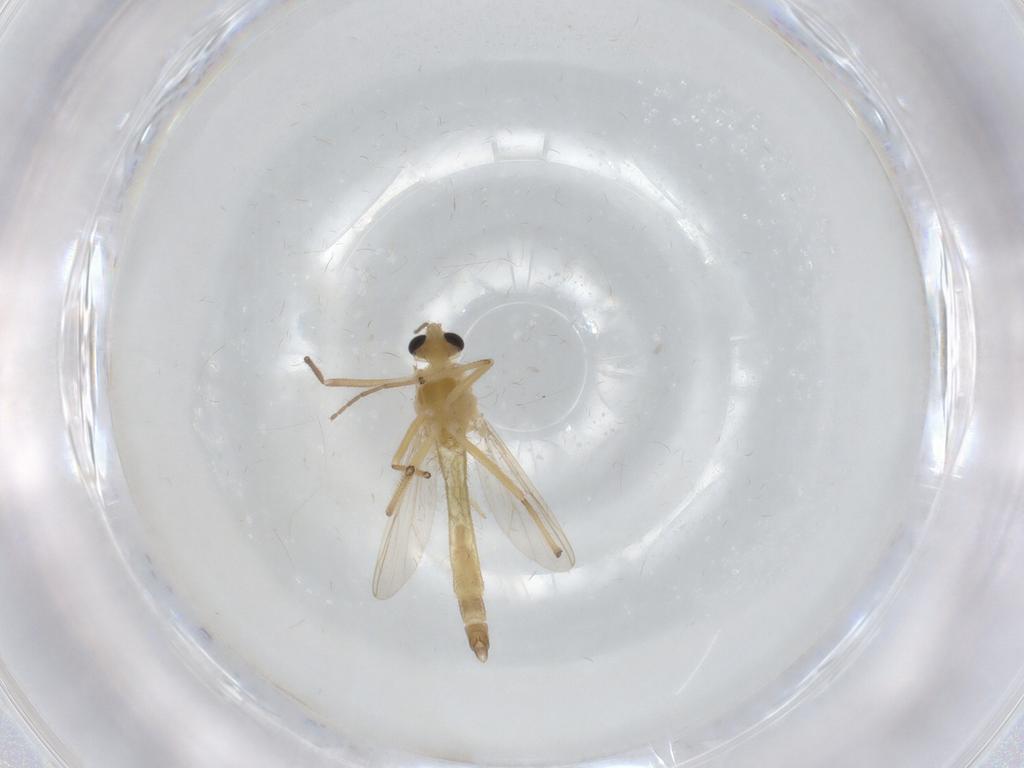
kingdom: Animalia
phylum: Arthropoda
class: Insecta
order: Diptera
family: Chironomidae
